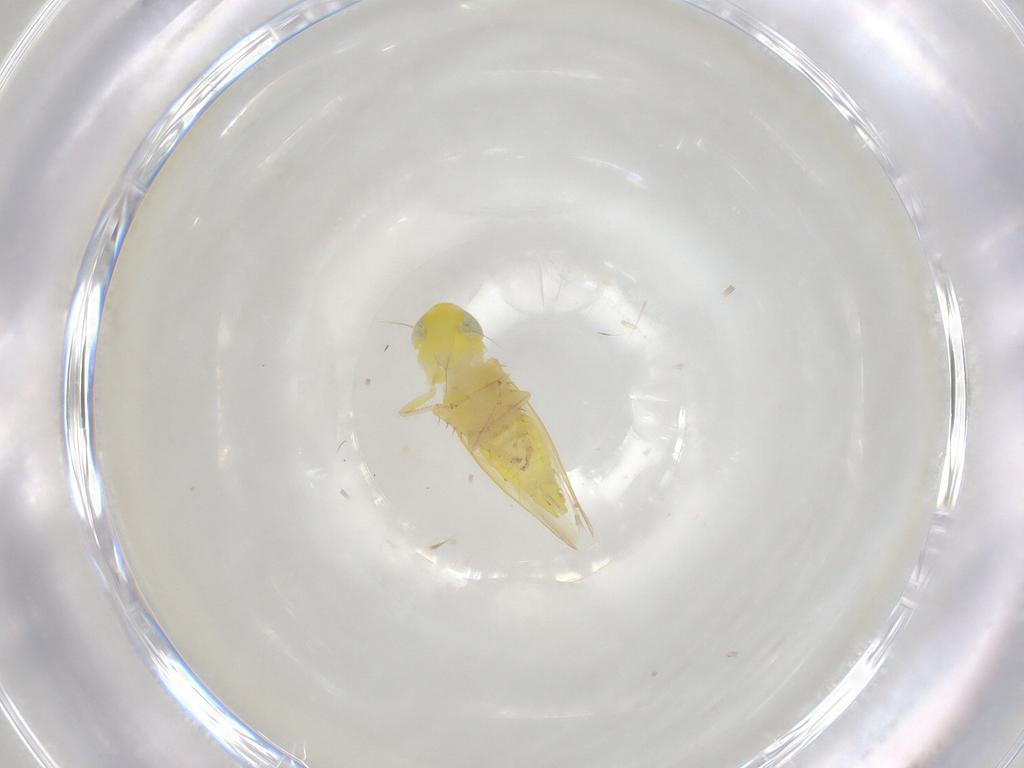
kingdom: Animalia
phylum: Arthropoda
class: Insecta
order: Hemiptera
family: Cicadellidae
